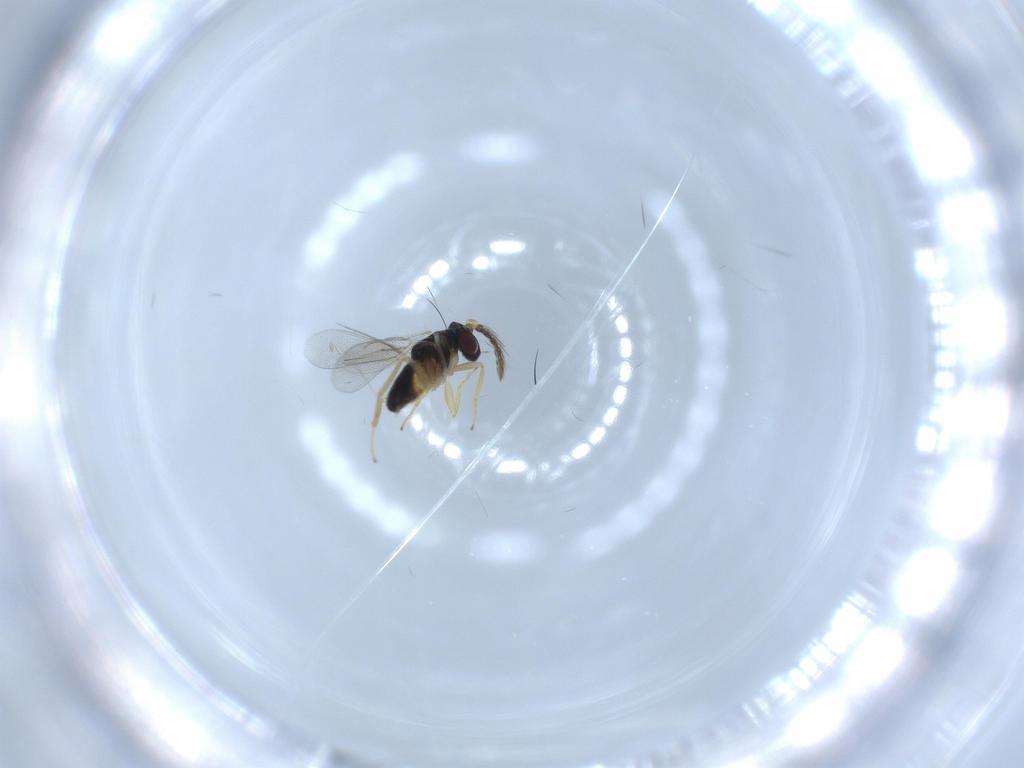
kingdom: Animalia
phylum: Arthropoda
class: Insecta
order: Hymenoptera
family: Eulophidae
